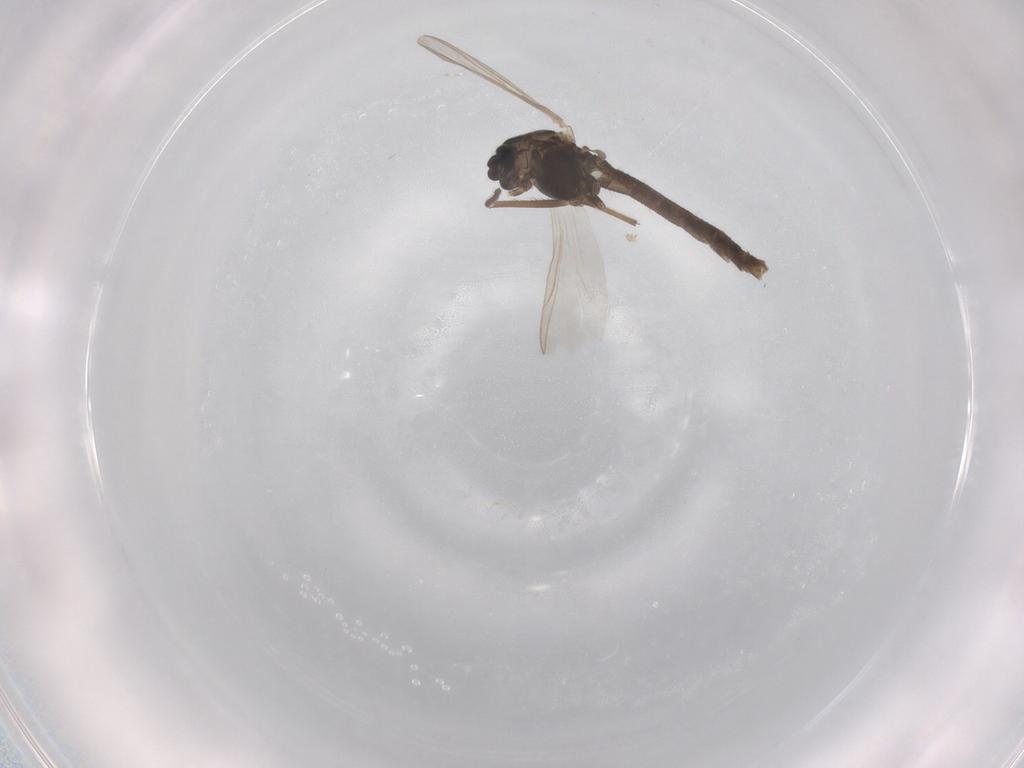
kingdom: Animalia
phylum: Arthropoda
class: Insecta
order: Diptera
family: Chironomidae
